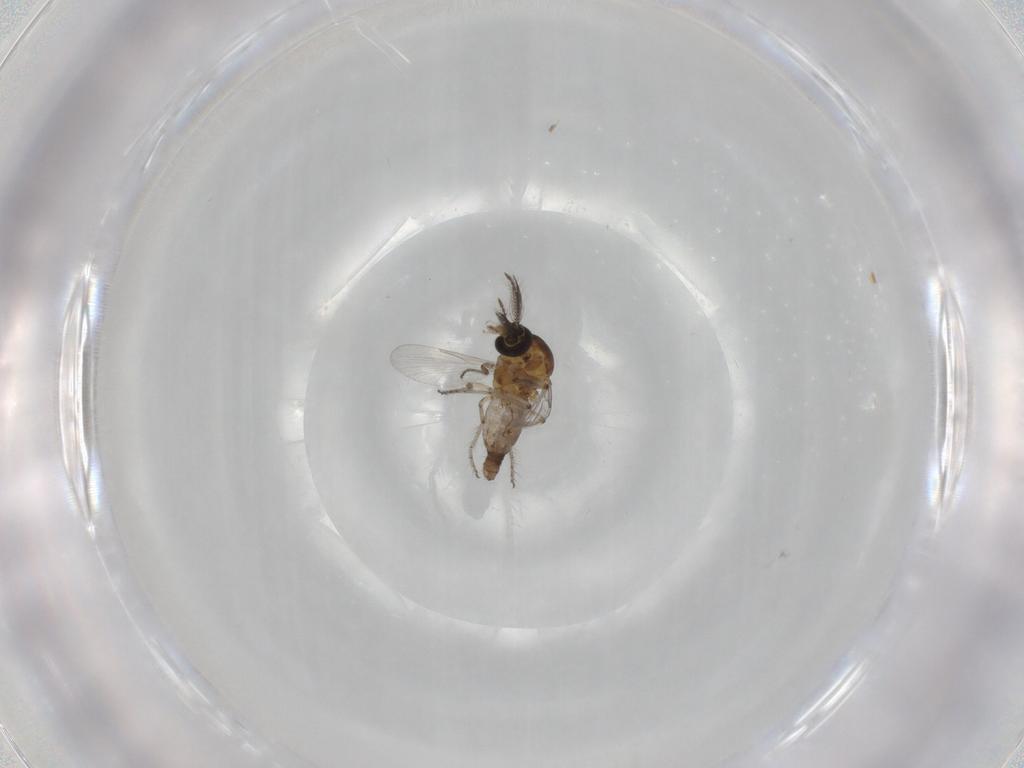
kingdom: Animalia
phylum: Arthropoda
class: Insecta
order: Diptera
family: Ceratopogonidae
